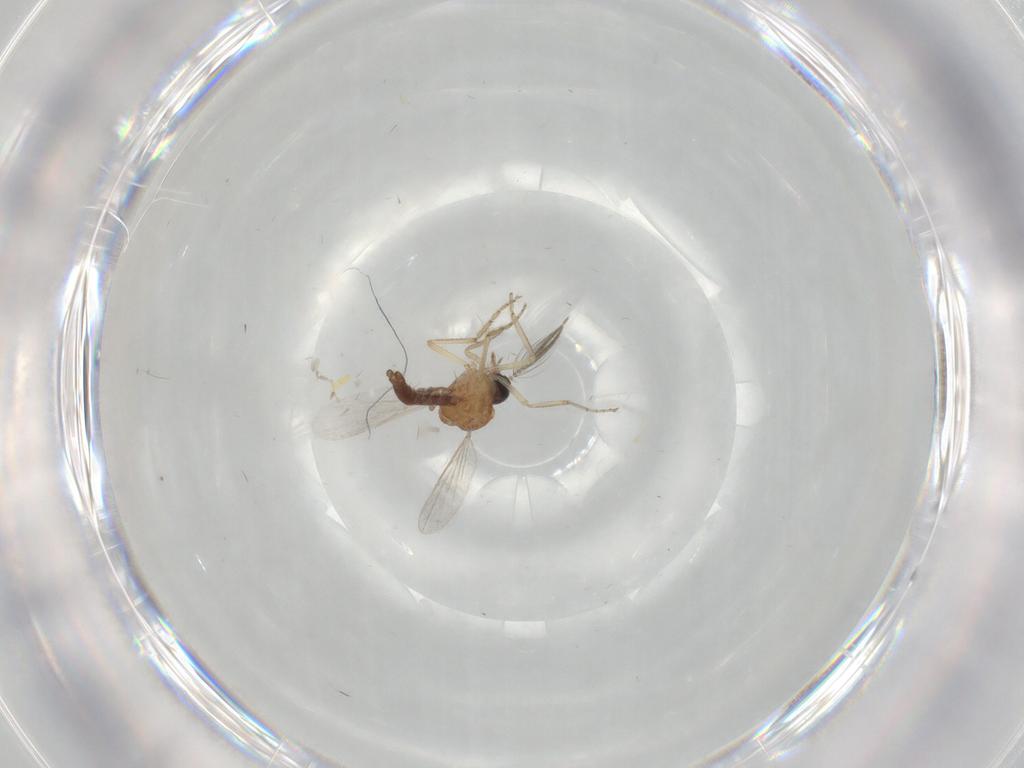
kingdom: Animalia
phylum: Arthropoda
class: Insecta
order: Diptera
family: Ceratopogonidae
